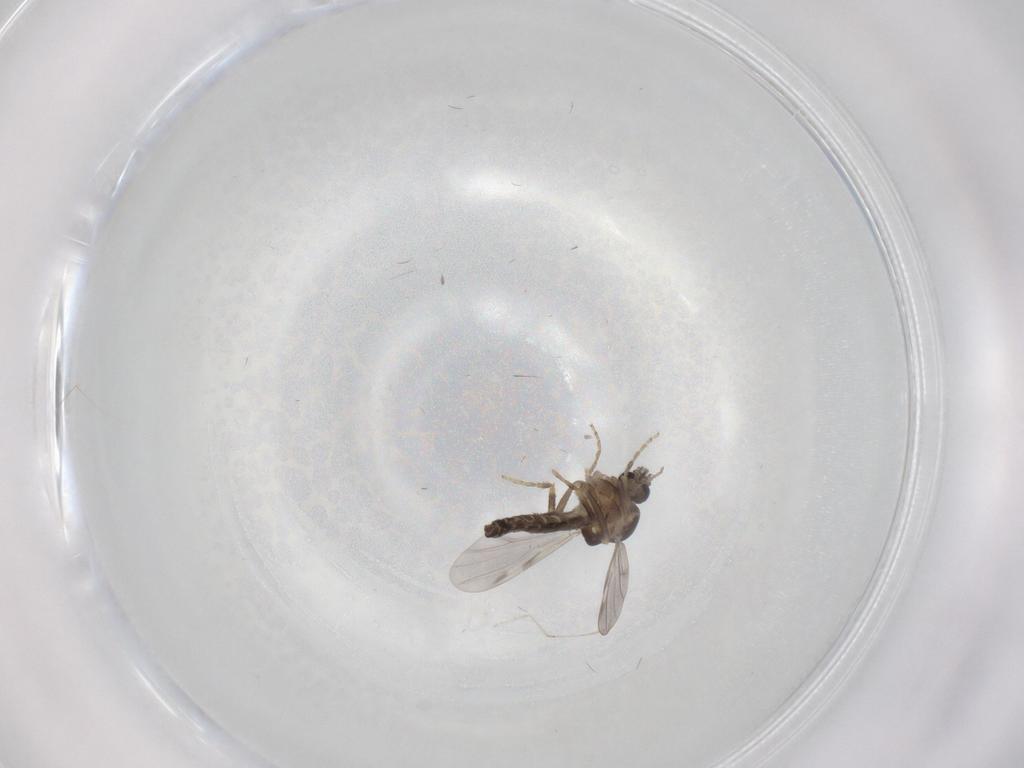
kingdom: Animalia
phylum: Arthropoda
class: Insecta
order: Diptera
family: Ceratopogonidae
